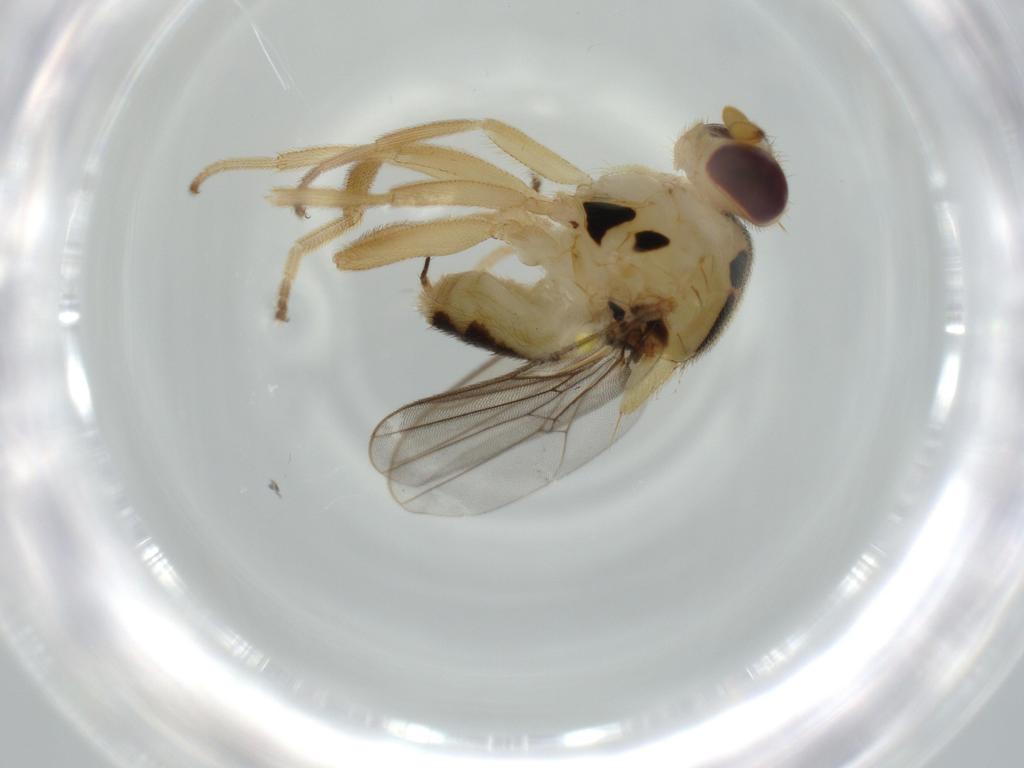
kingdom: Animalia
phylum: Arthropoda
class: Insecta
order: Diptera
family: Chloropidae
